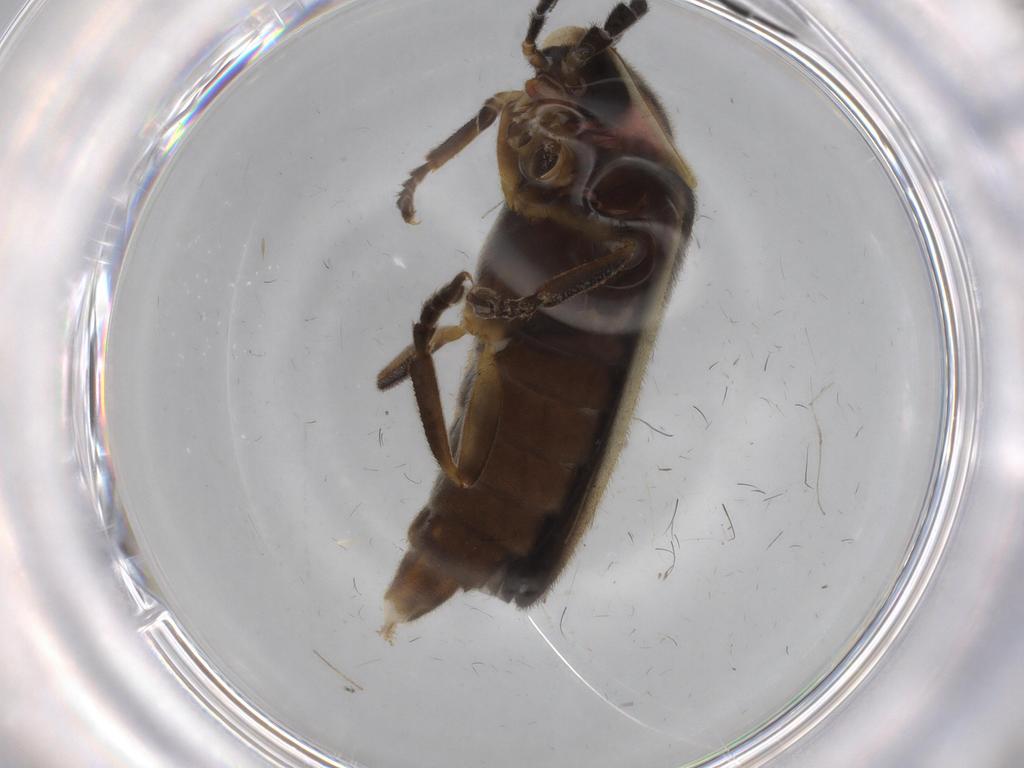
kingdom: Animalia
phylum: Arthropoda
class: Insecta
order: Coleoptera
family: Lampyridae
